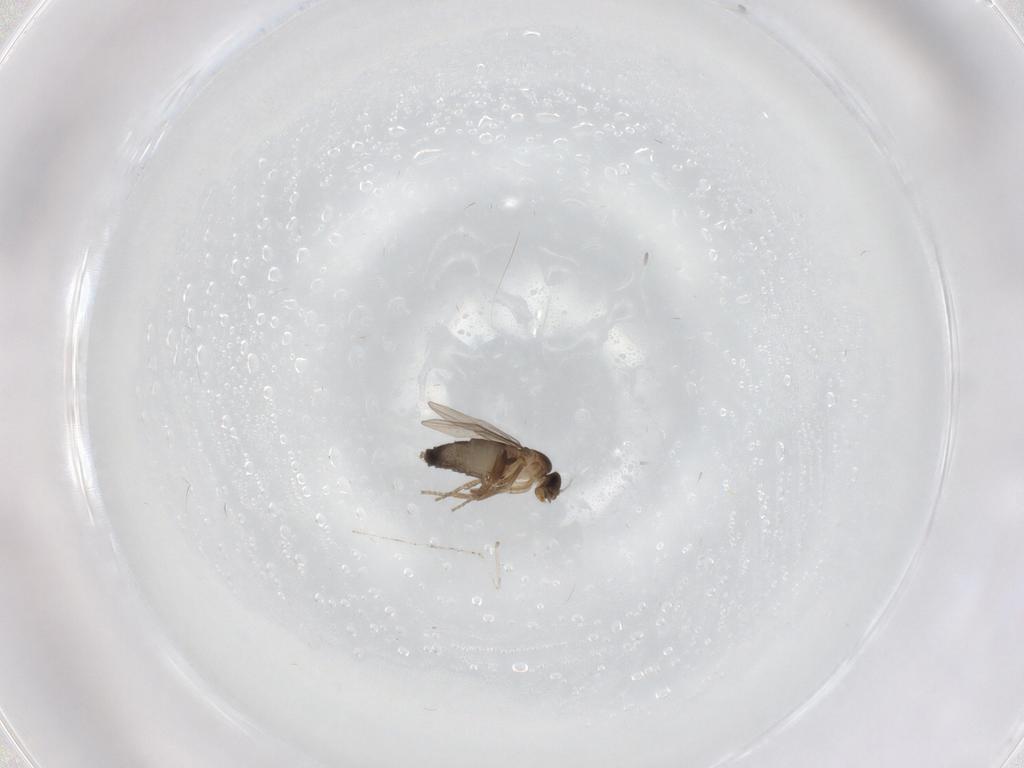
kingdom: Animalia
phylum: Arthropoda
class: Insecta
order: Diptera
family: Phoridae
